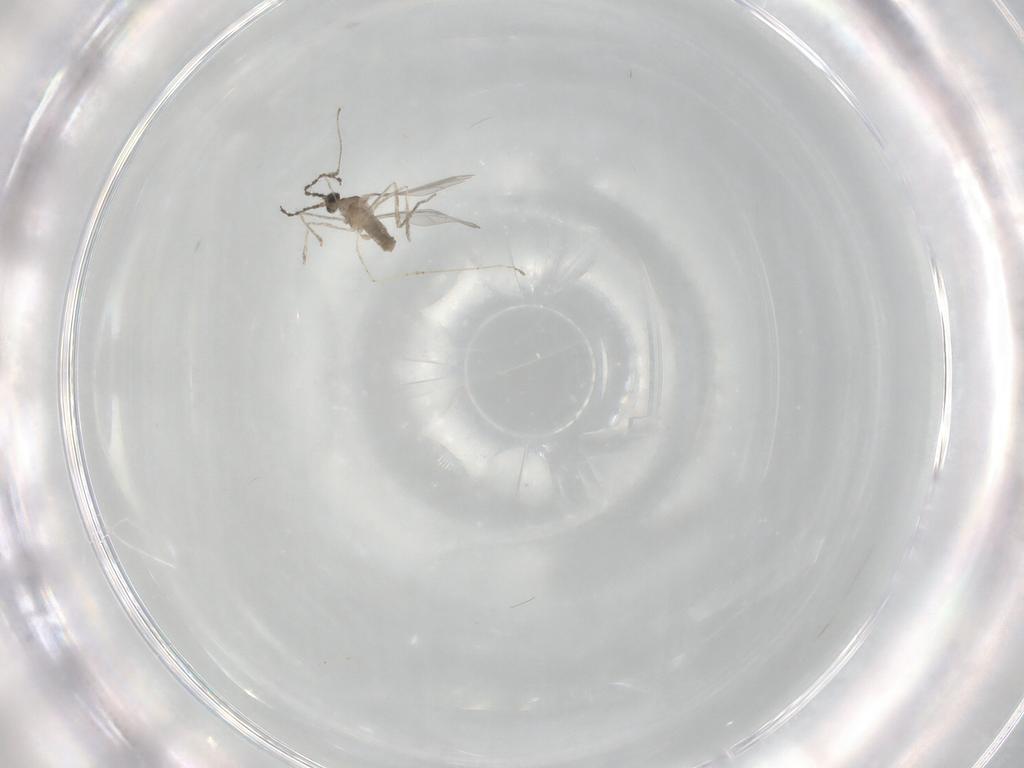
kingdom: Animalia
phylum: Arthropoda
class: Insecta
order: Diptera
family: Cecidomyiidae
